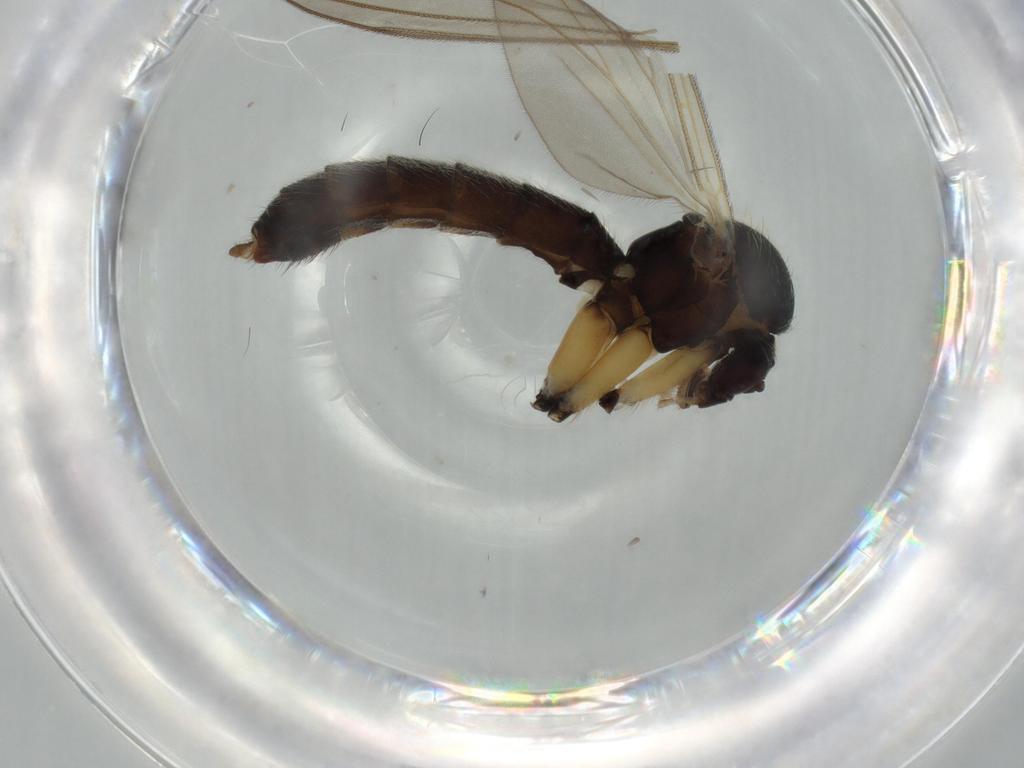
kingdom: Animalia
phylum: Arthropoda
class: Insecta
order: Diptera
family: Mycetophilidae
